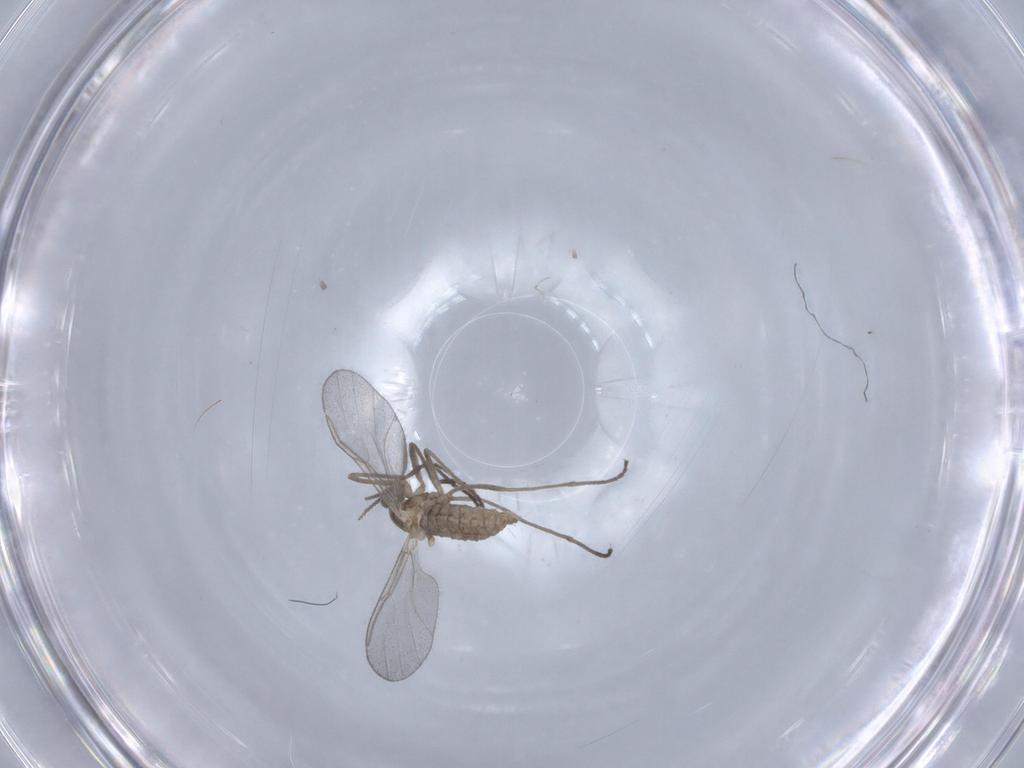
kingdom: Animalia
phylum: Arthropoda
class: Insecta
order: Diptera
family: Cecidomyiidae
